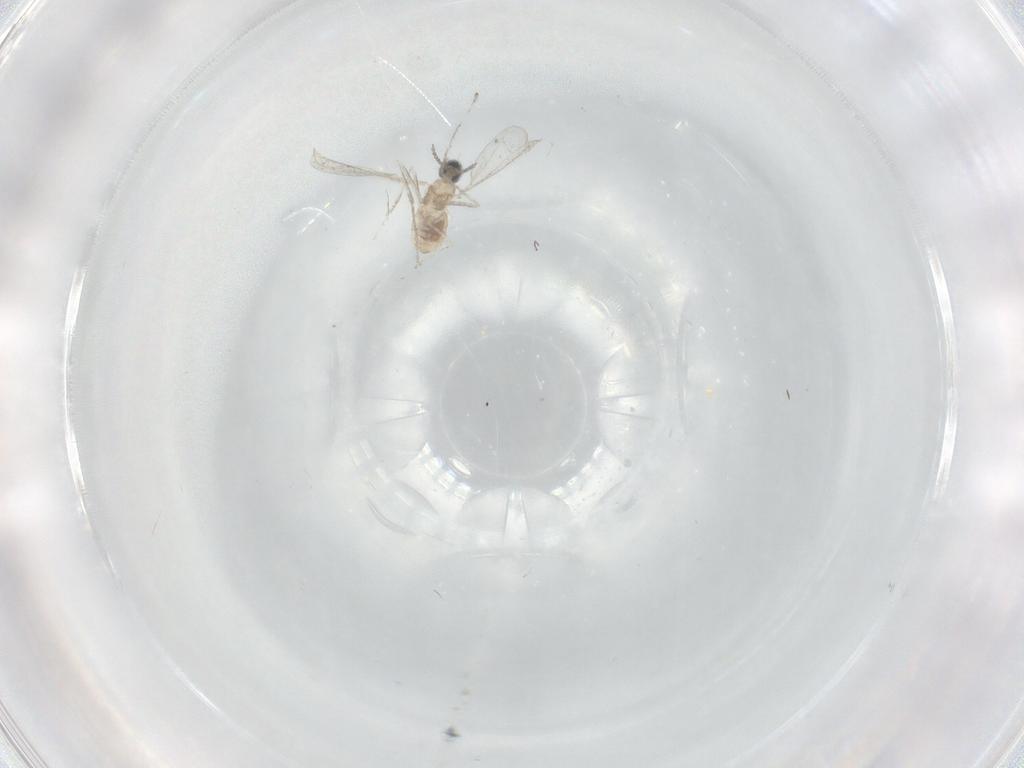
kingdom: Animalia
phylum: Arthropoda
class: Insecta
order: Diptera
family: Cecidomyiidae
